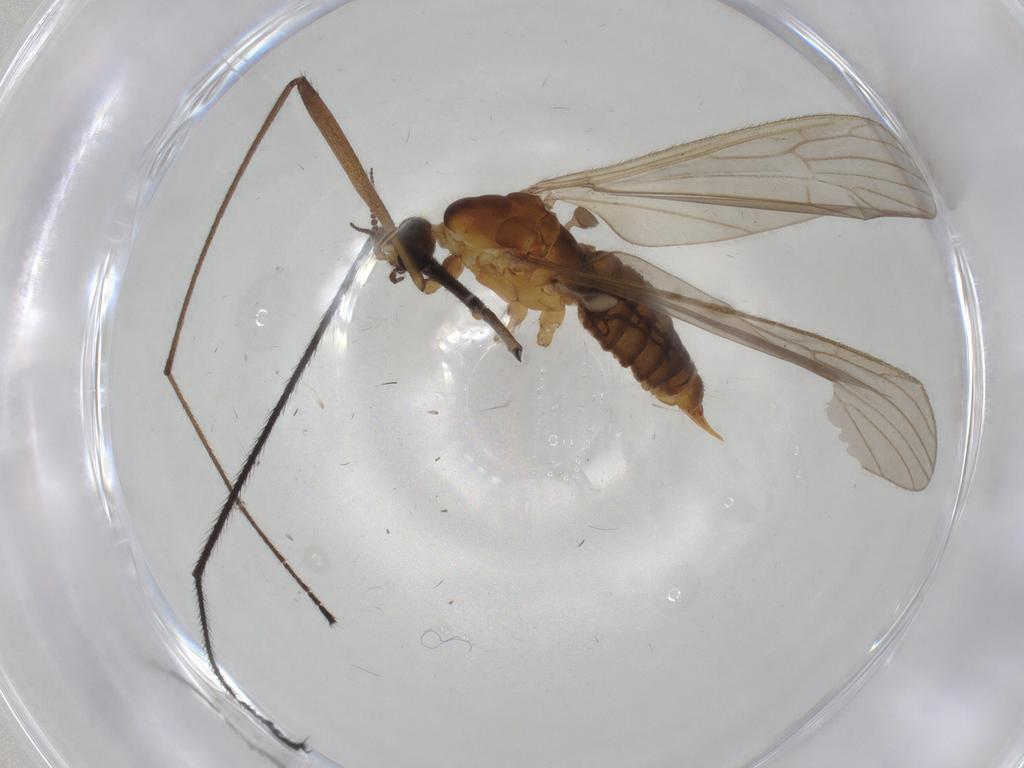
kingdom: Animalia
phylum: Arthropoda
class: Insecta
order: Diptera
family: Limoniidae
